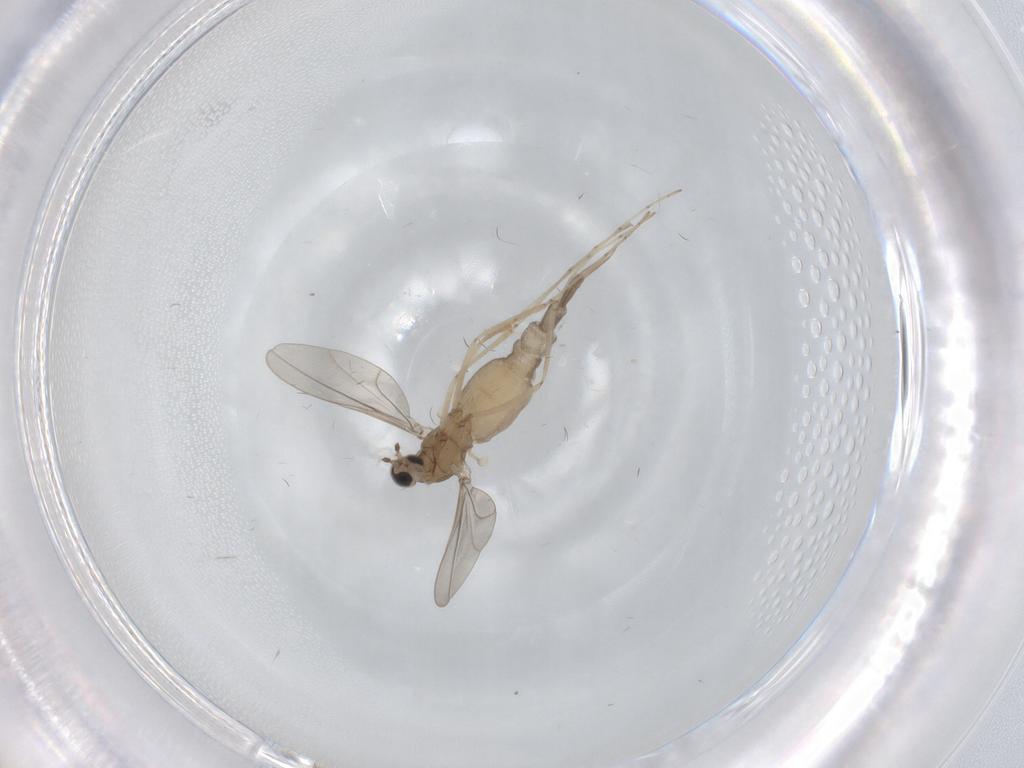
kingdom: Animalia
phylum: Arthropoda
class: Insecta
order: Diptera
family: Cecidomyiidae
